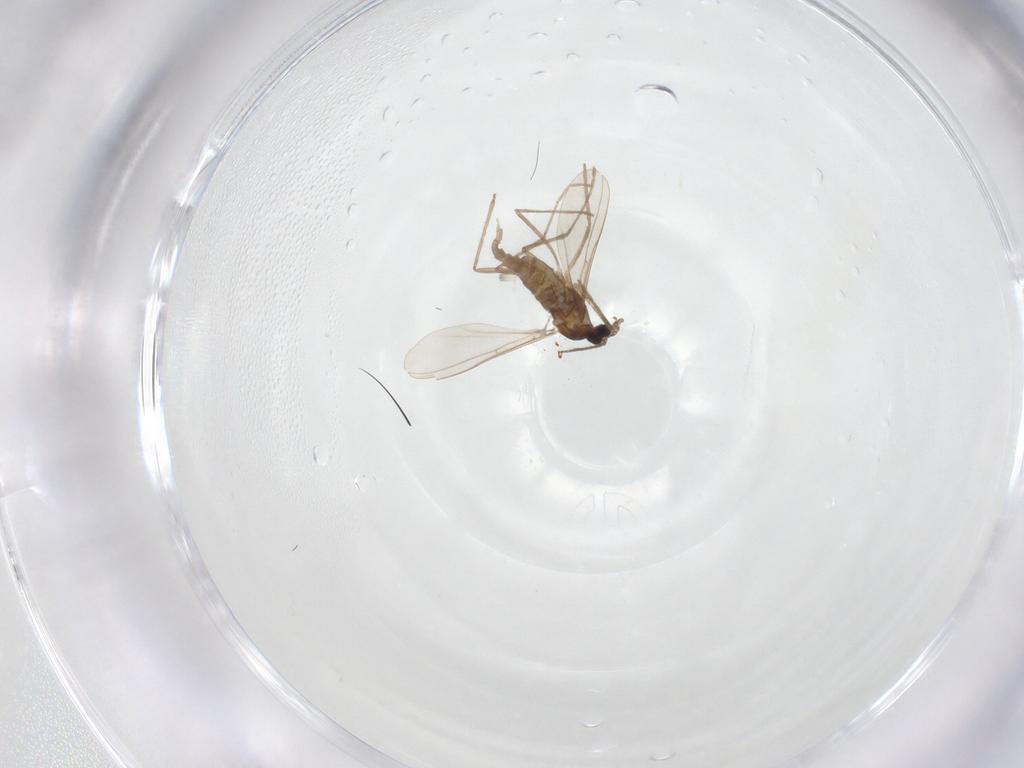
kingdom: Animalia
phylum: Arthropoda
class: Insecta
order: Diptera
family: Cecidomyiidae
